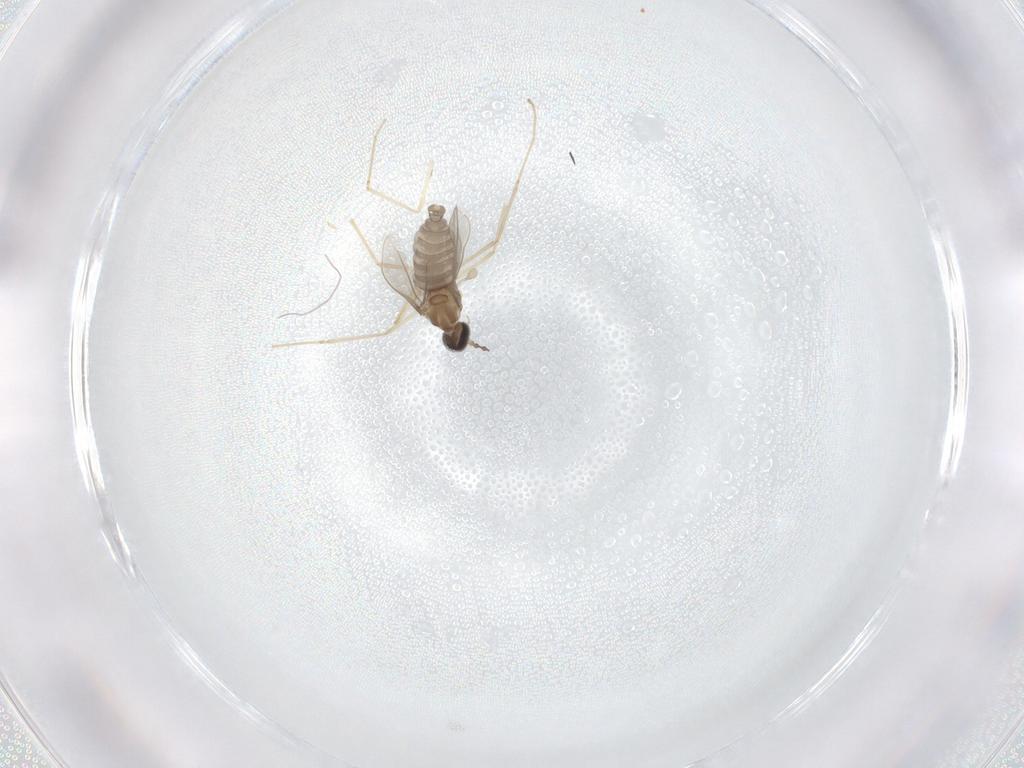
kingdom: Animalia
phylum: Arthropoda
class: Insecta
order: Diptera
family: Cecidomyiidae
